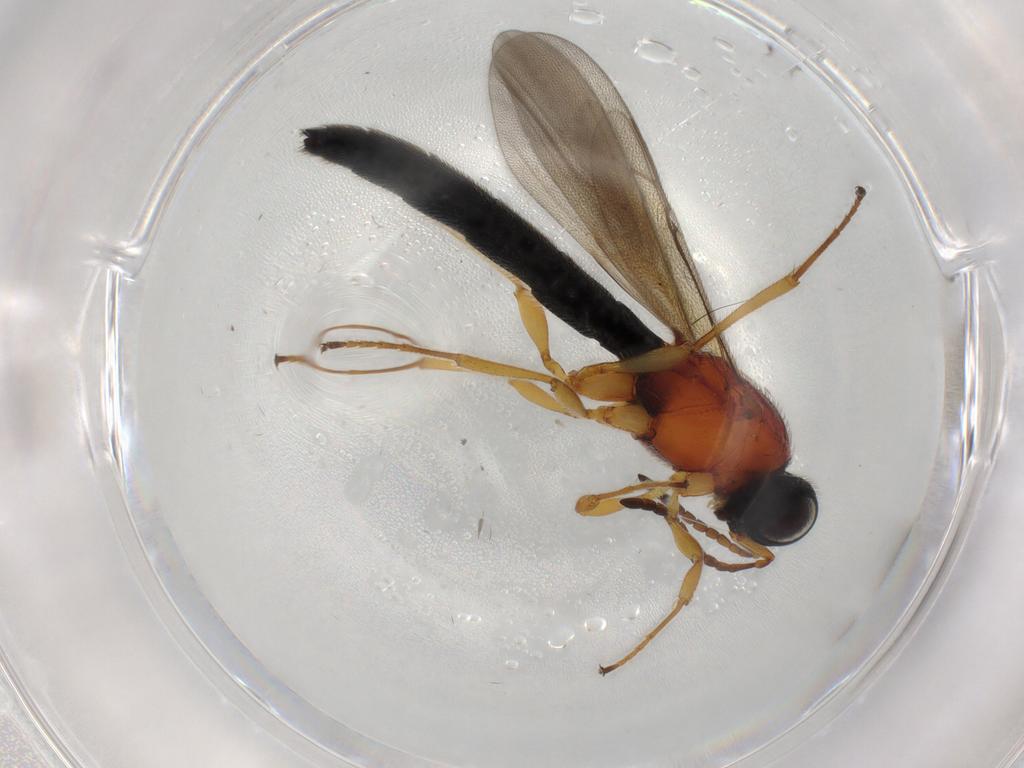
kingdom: Animalia
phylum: Arthropoda
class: Insecta
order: Hymenoptera
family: Scelionidae
